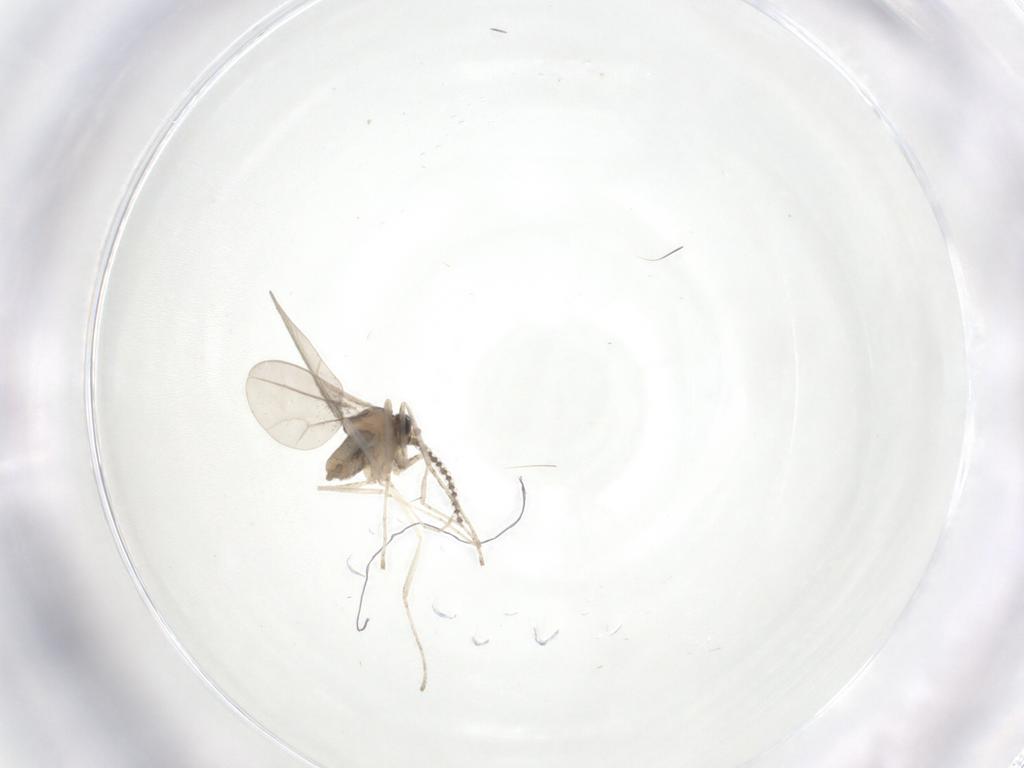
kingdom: Animalia
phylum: Arthropoda
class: Insecta
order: Diptera
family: Cecidomyiidae
